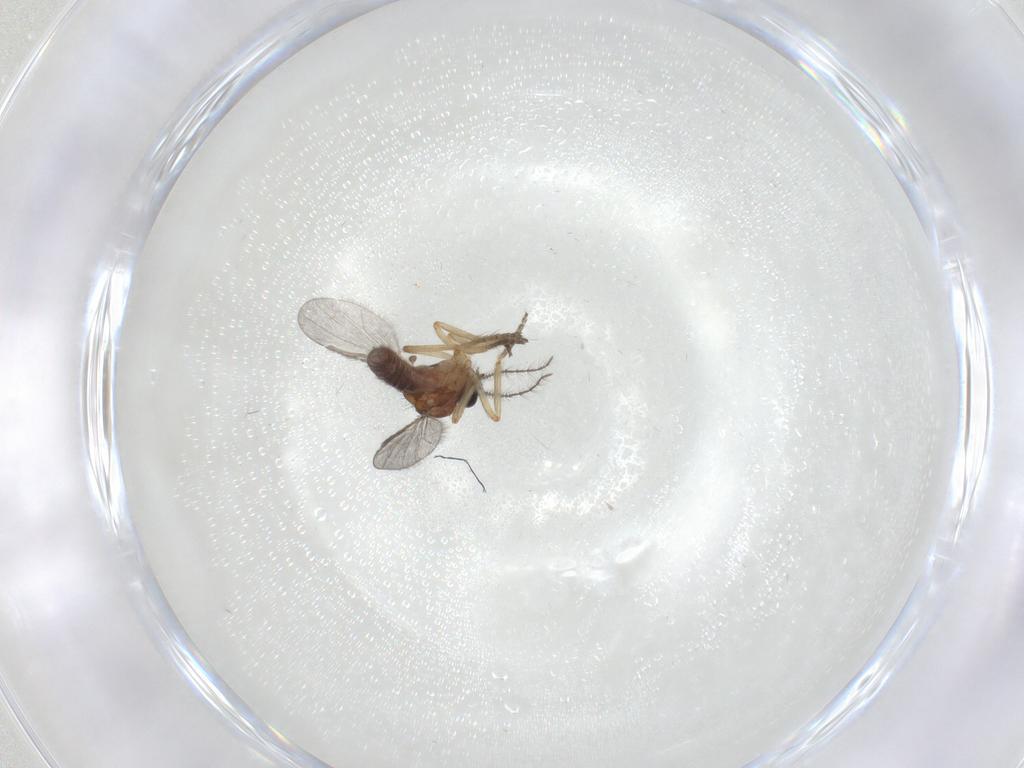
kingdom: Animalia
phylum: Arthropoda
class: Insecta
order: Diptera
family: Ceratopogonidae
